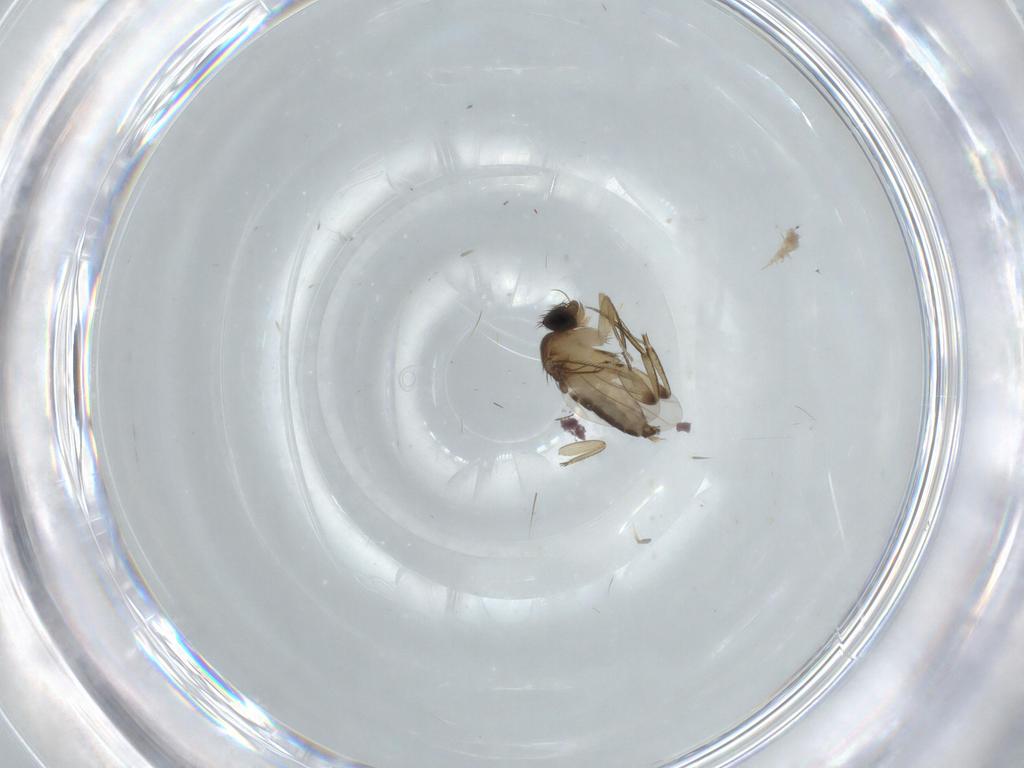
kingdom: Animalia
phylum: Arthropoda
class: Insecta
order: Diptera
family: Phoridae
